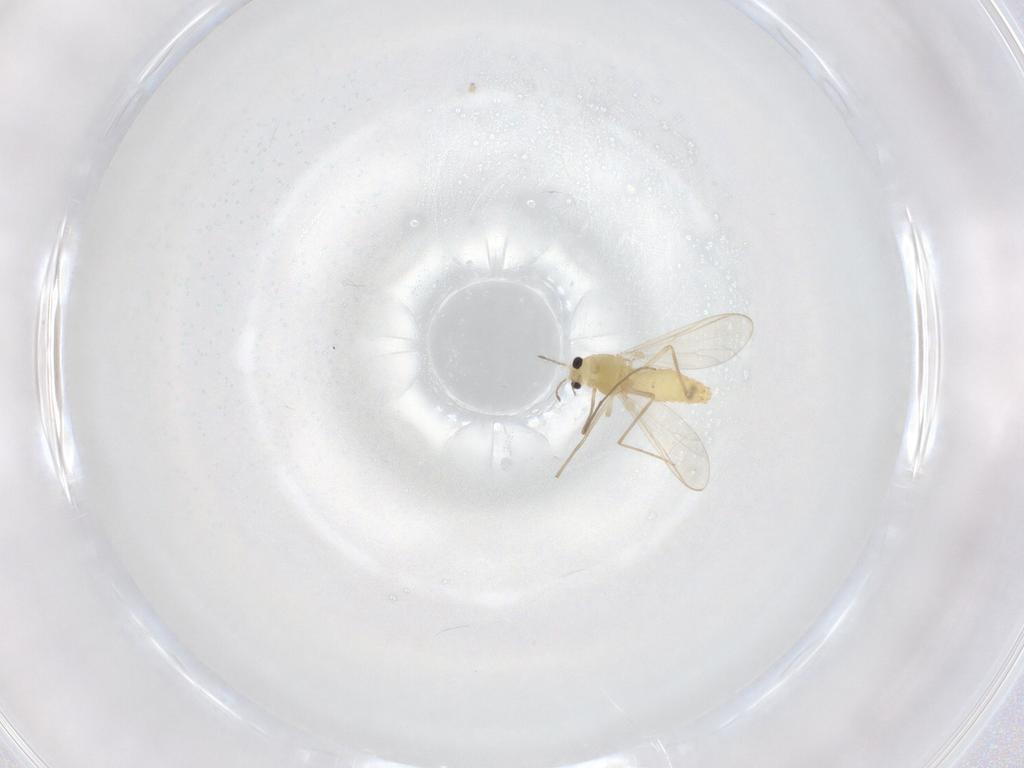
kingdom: Animalia
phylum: Arthropoda
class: Insecta
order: Diptera
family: Chironomidae
